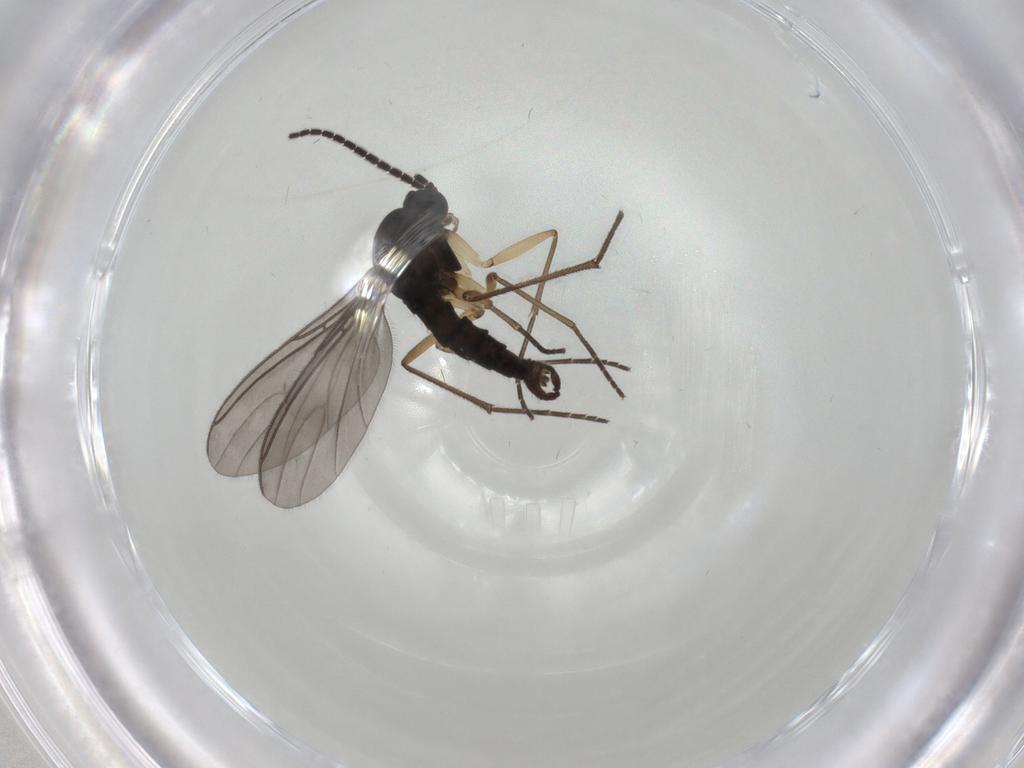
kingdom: Animalia
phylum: Arthropoda
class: Insecta
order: Diptera
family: Sciaridae
